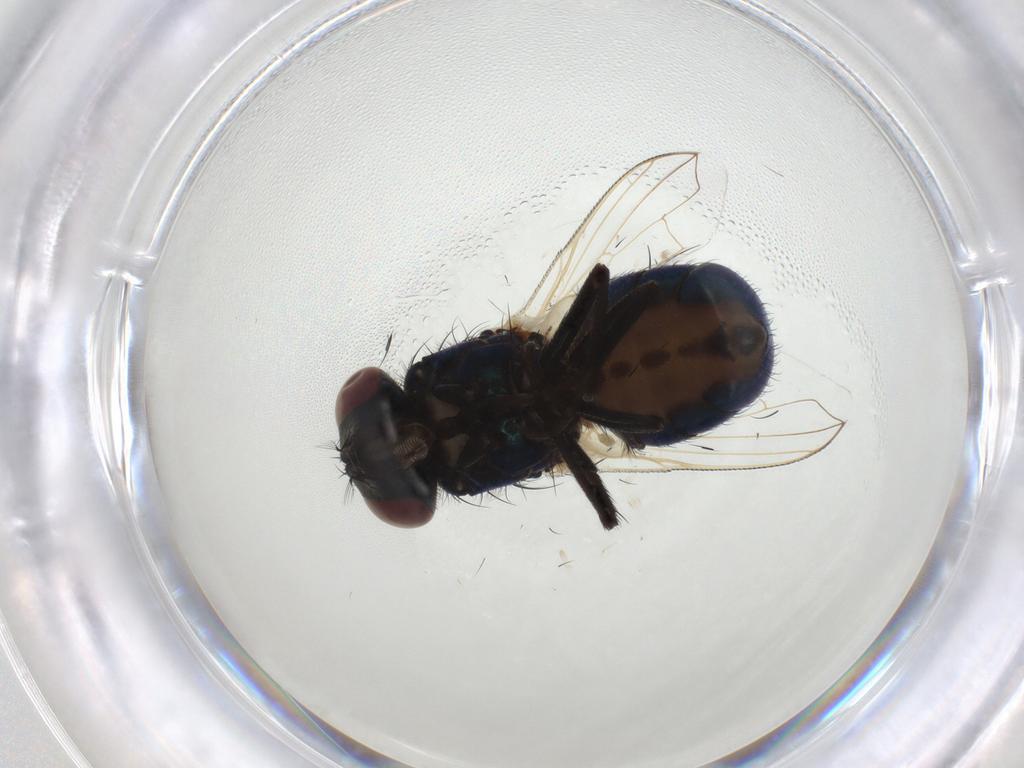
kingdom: Animalia
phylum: Arthropoda
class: Insecta
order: Diptera
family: Muscidae
